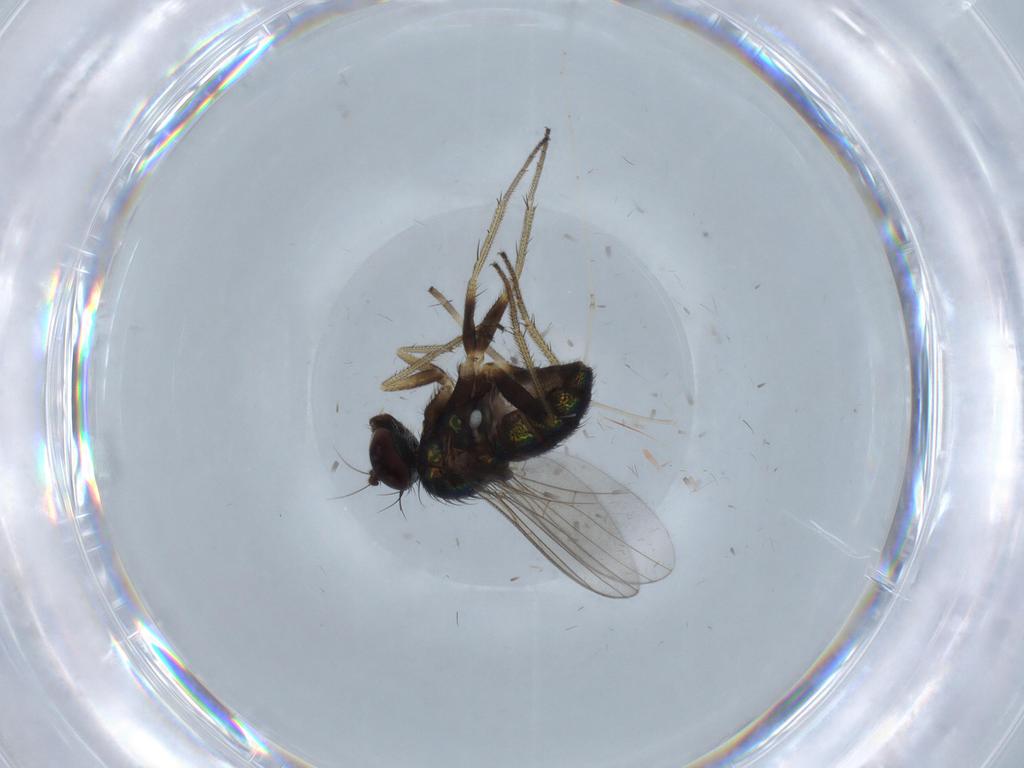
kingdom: Animalia
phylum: Arthropoda
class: Insecta
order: Diptera
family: Cecidomyiidae
